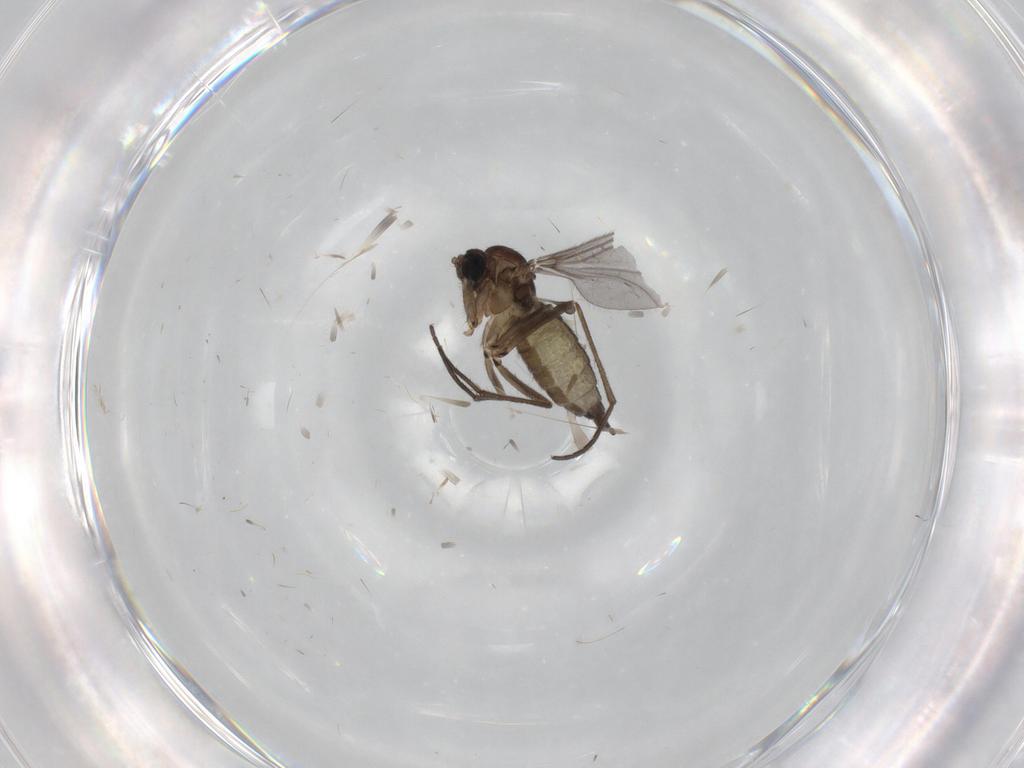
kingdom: Animalia
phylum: Arthropoda
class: Insecta
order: Diptera
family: Sciaridae
